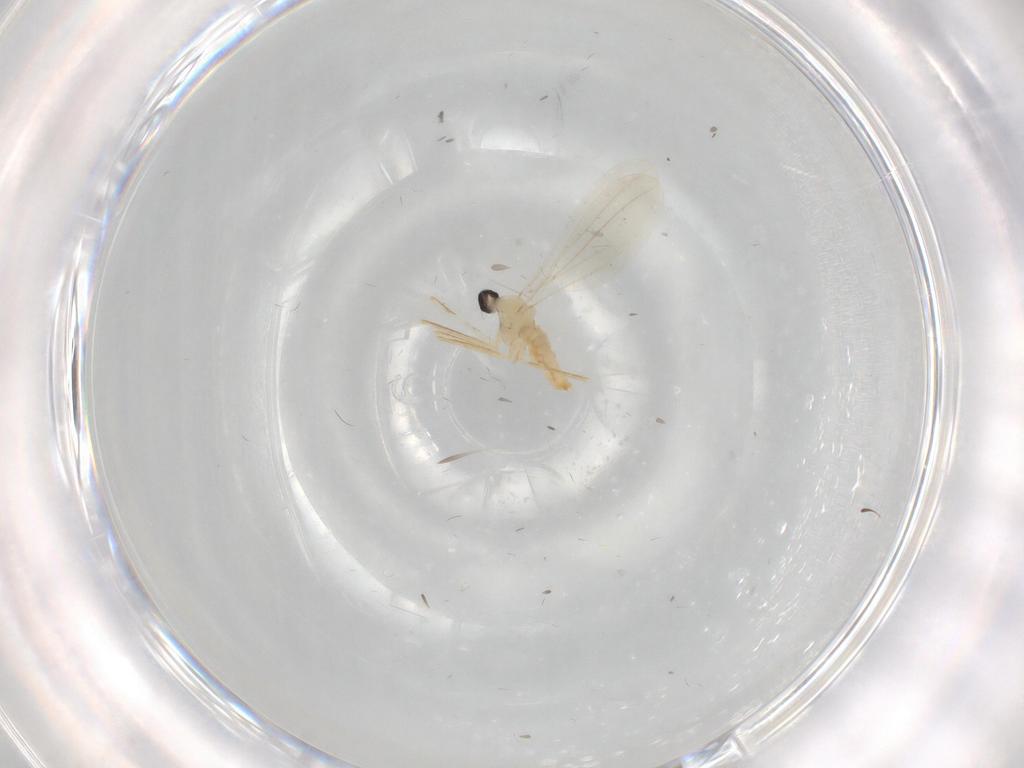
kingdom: Animalia
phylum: Arthropoda
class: Insecta
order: Diptera
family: Cecidomyiidae
